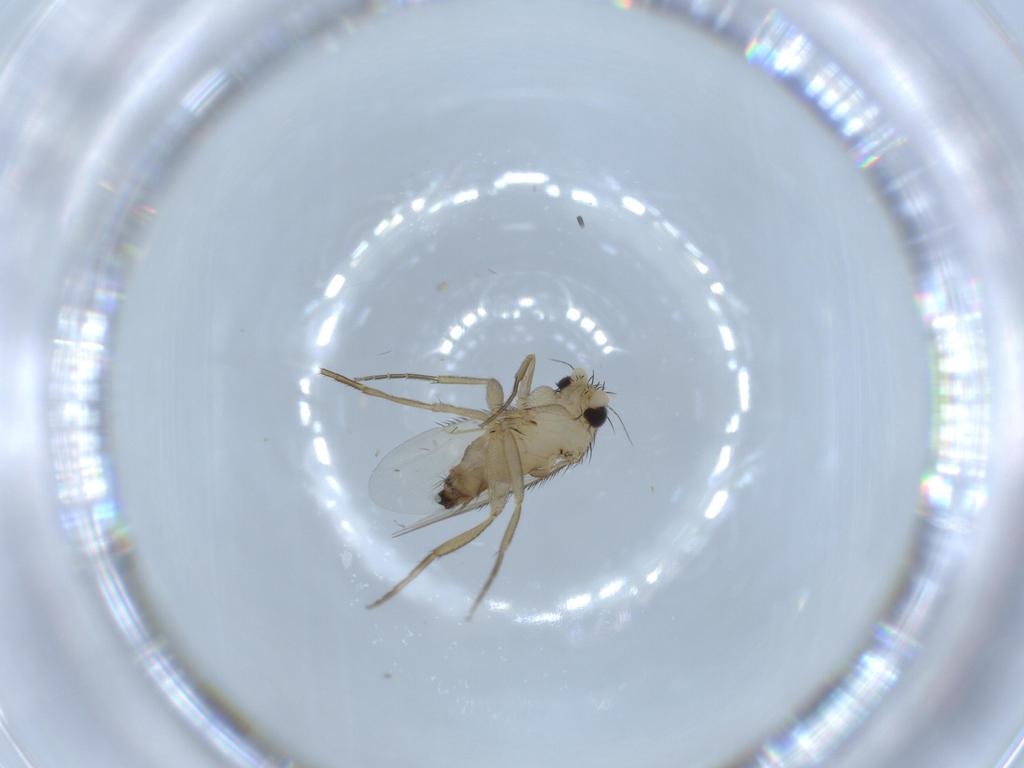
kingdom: Animalia
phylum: Arthropoda
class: Insecta
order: Diptera
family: Phoridae
